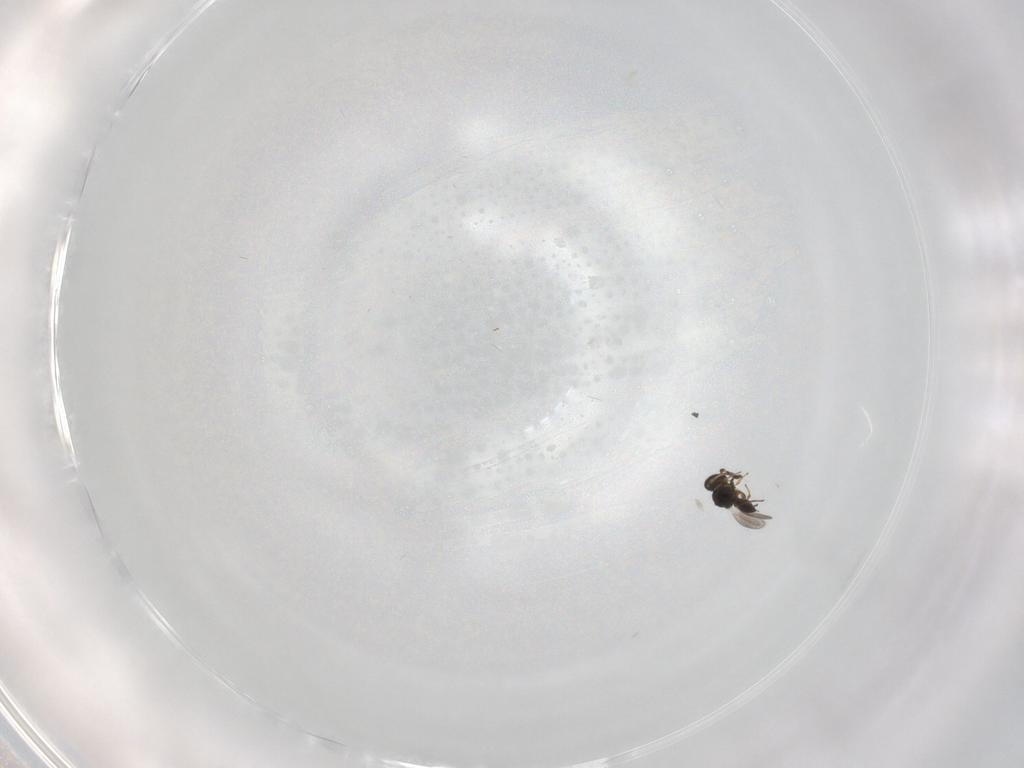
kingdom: Animalia
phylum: Arthropoda
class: Insecta
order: Hymenoptera
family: Platygastridae
